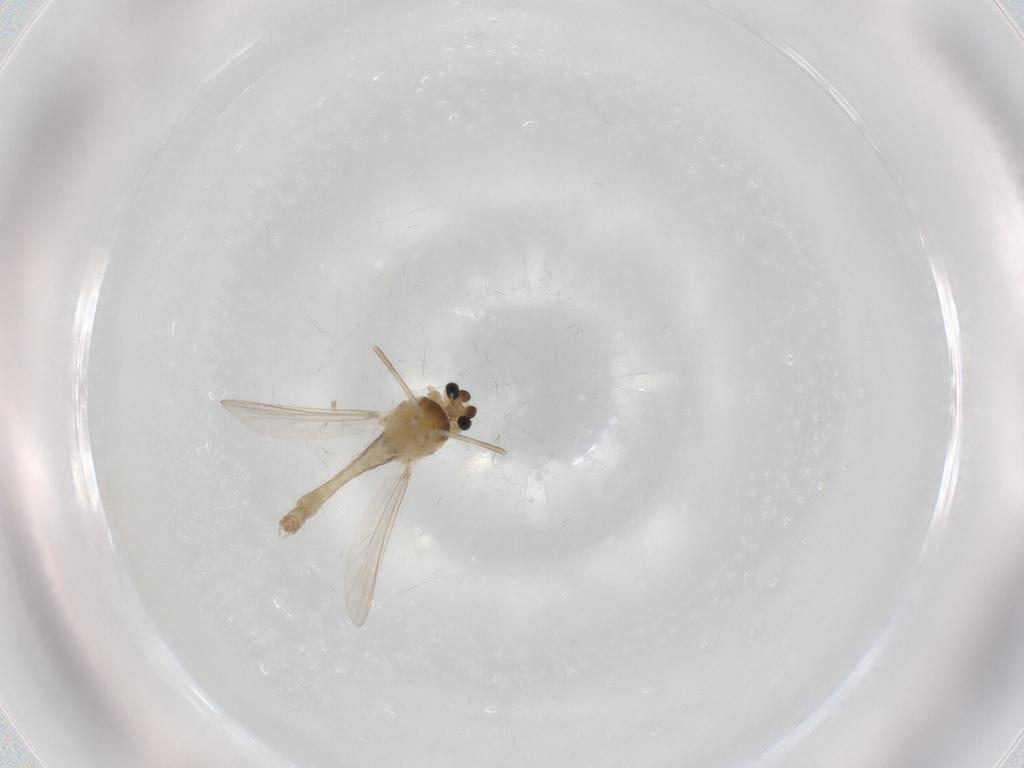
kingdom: Animalia
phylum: Arthropoda
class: Insecta
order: Diptera
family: Chironomidae
